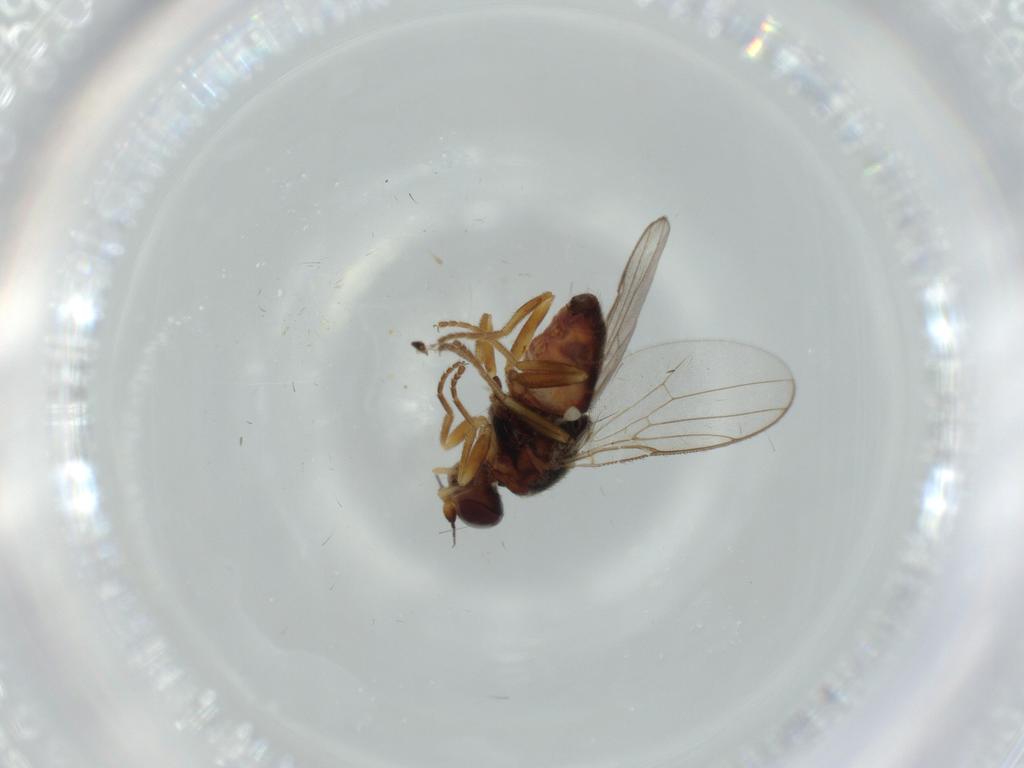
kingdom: Animalia
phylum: Arthropoda
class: Insecta
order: Diptera
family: Chloropidae
